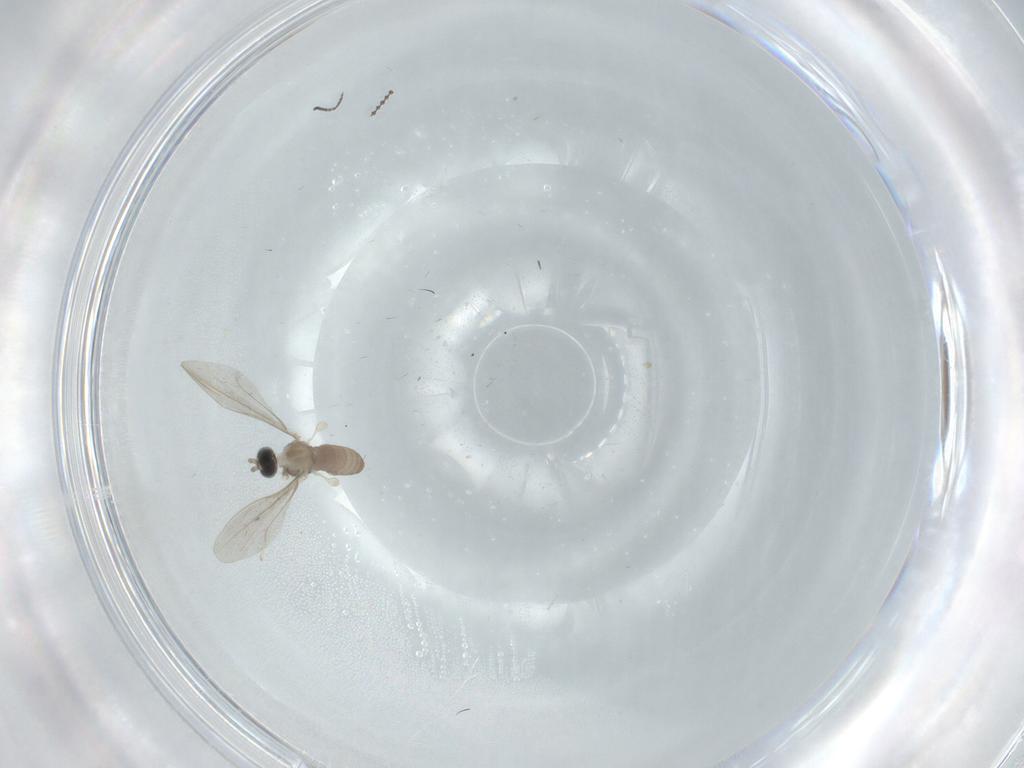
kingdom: Animalia
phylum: Arthropoda
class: Insecta
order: Diptera
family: Cecidomyiidae
